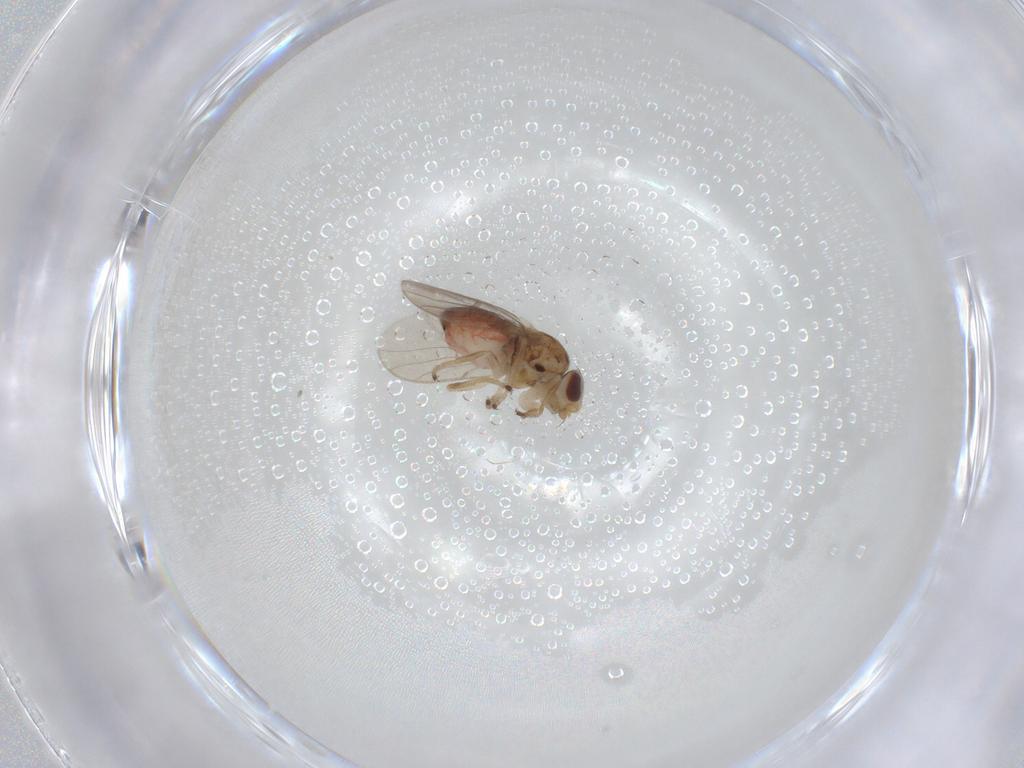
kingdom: Animalia
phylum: Arthropoda
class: Insecta
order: Diptera
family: Chloropidae
